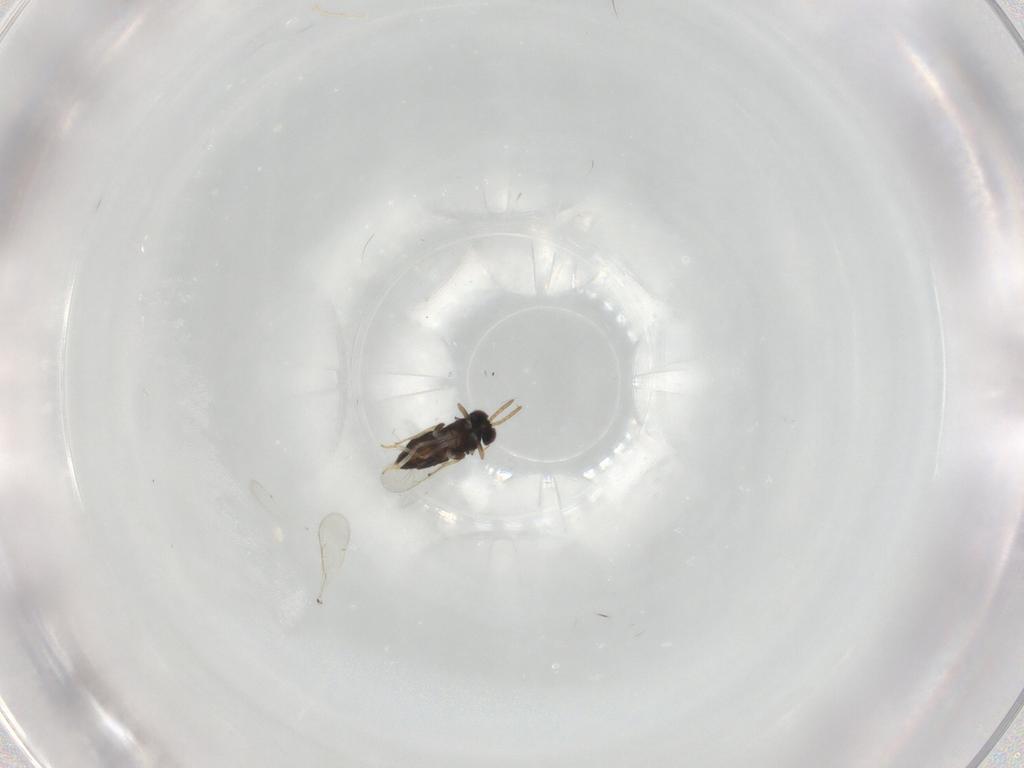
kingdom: Animalia
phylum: Arthropoda
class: Insecta
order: Hymenoptera
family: Aphelinidae
